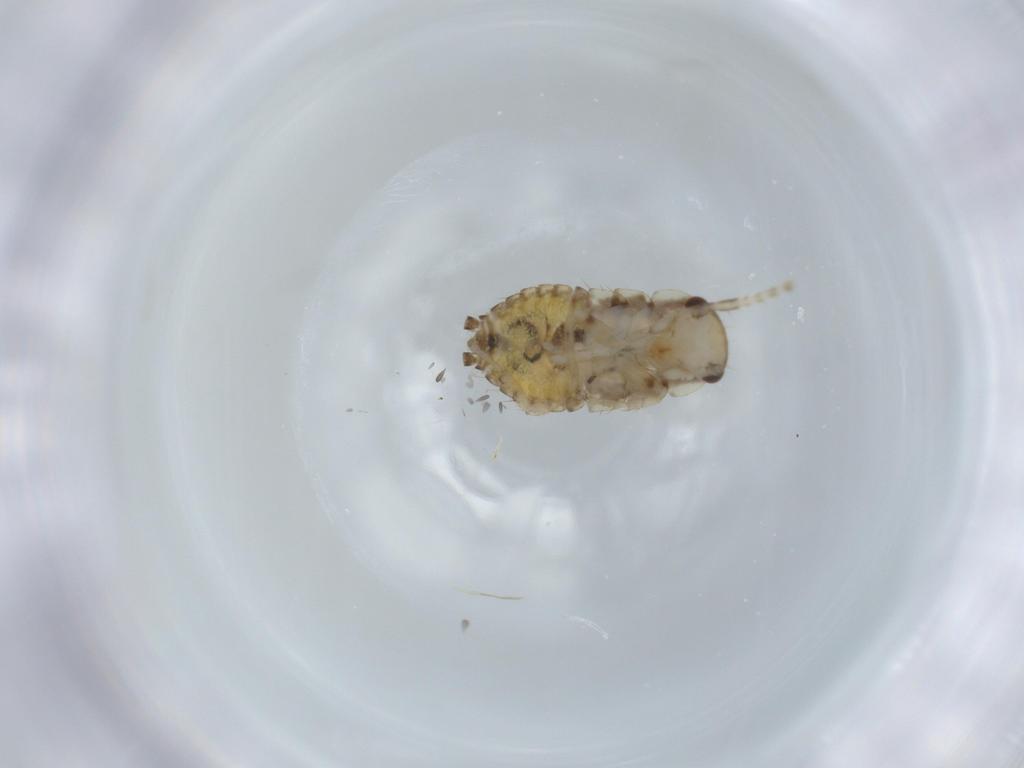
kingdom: Animalia
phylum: Arthropoda
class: Insecta
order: Blattodea
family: Ectobiidae
